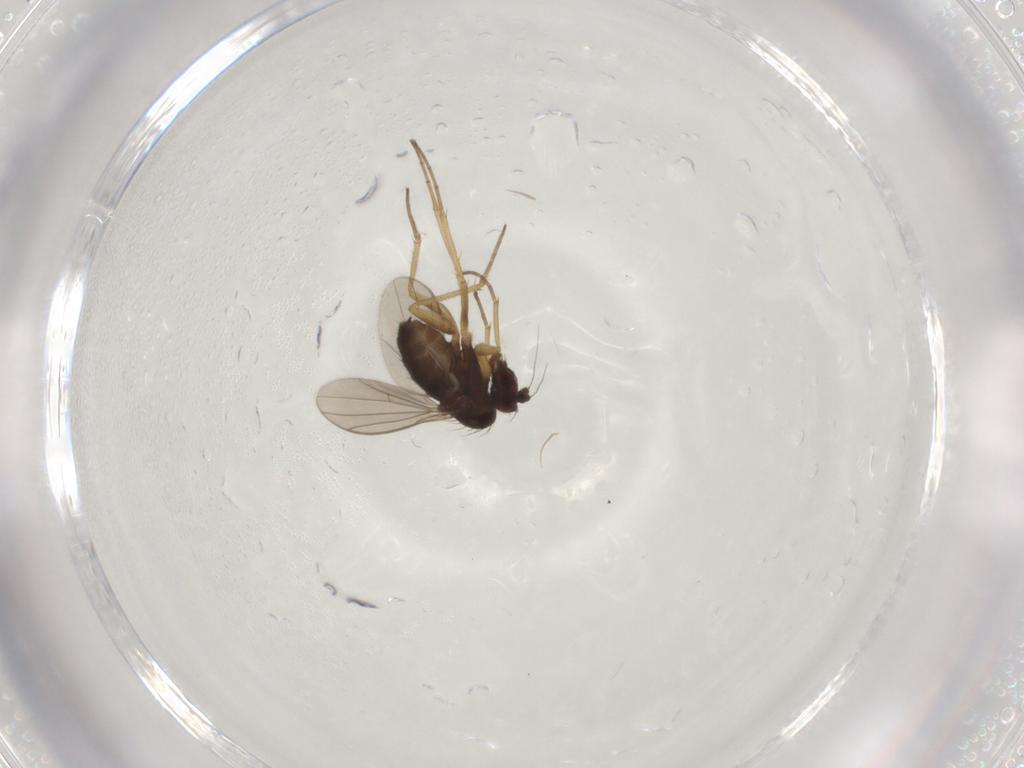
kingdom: Animalia
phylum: Arthropoda
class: Insecta
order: Diptera
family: Dolichopodidae
